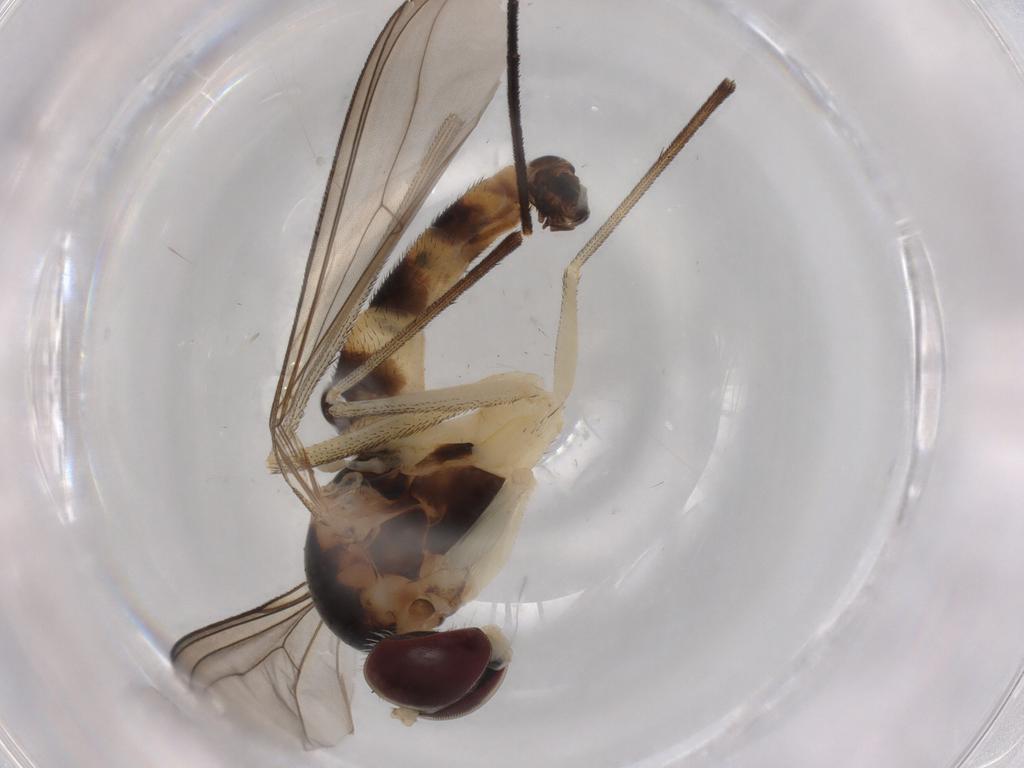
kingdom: Animalia
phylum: Arthropoda
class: Insecta
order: Diptera
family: Muscidae
